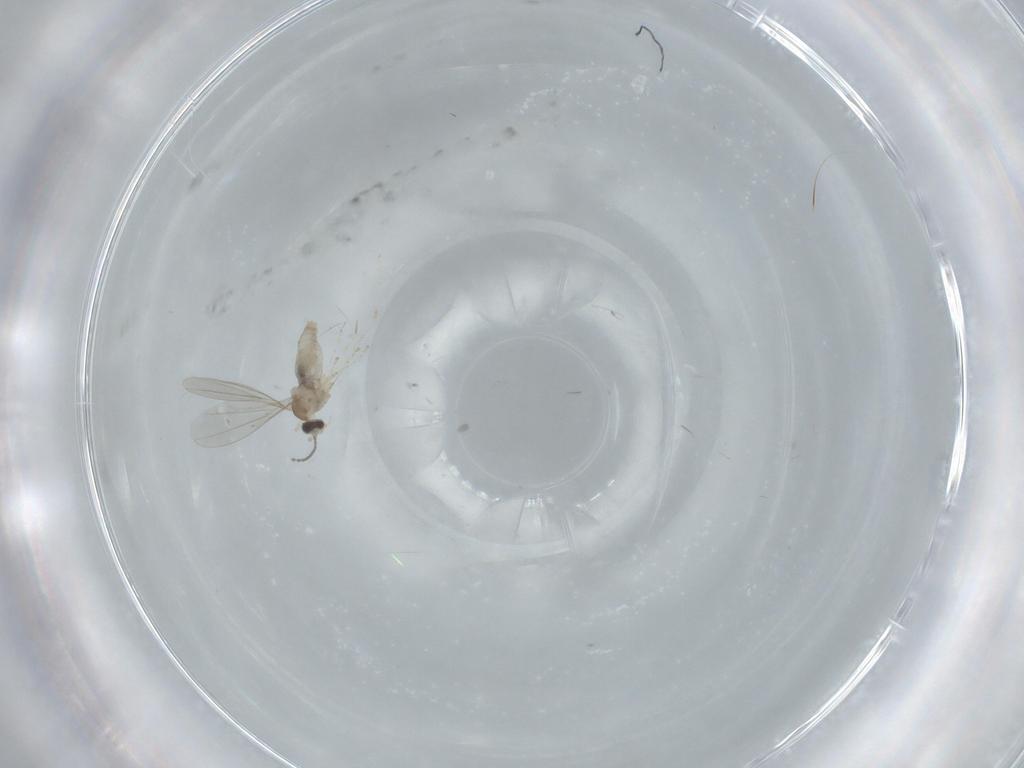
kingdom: Animalia
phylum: Arthropoda
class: Insecta
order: Diptera
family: Cecidomyiidae
